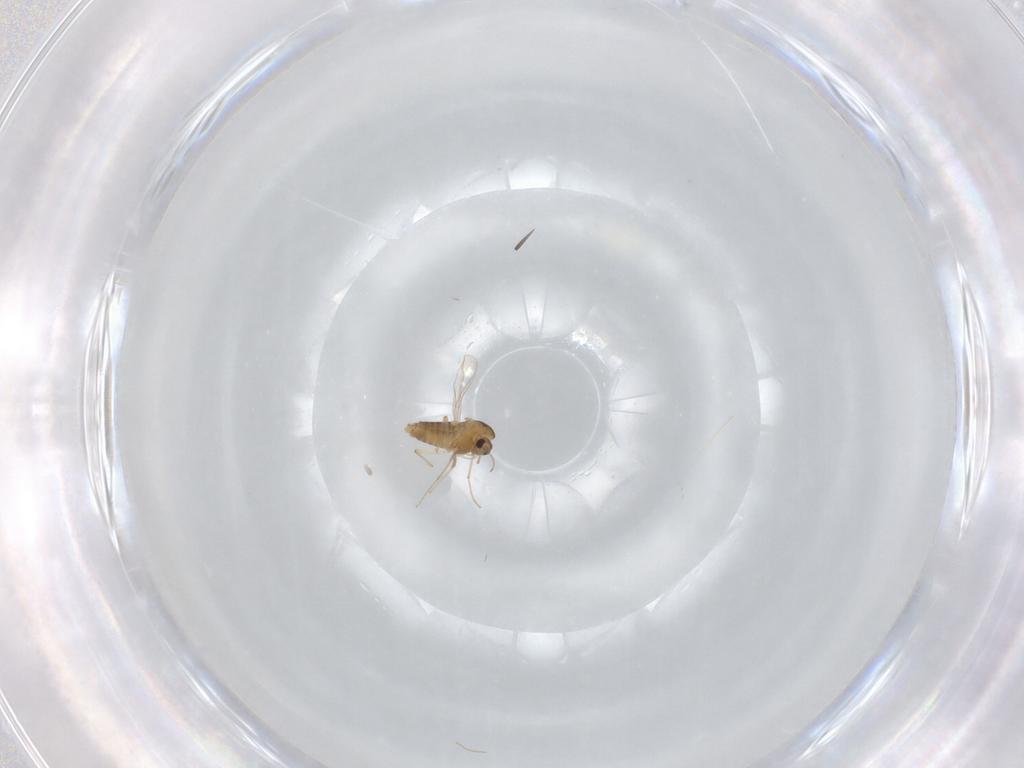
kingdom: Animalia
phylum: Arthropoda
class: Insecta
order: Diptera
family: Chironomidae
